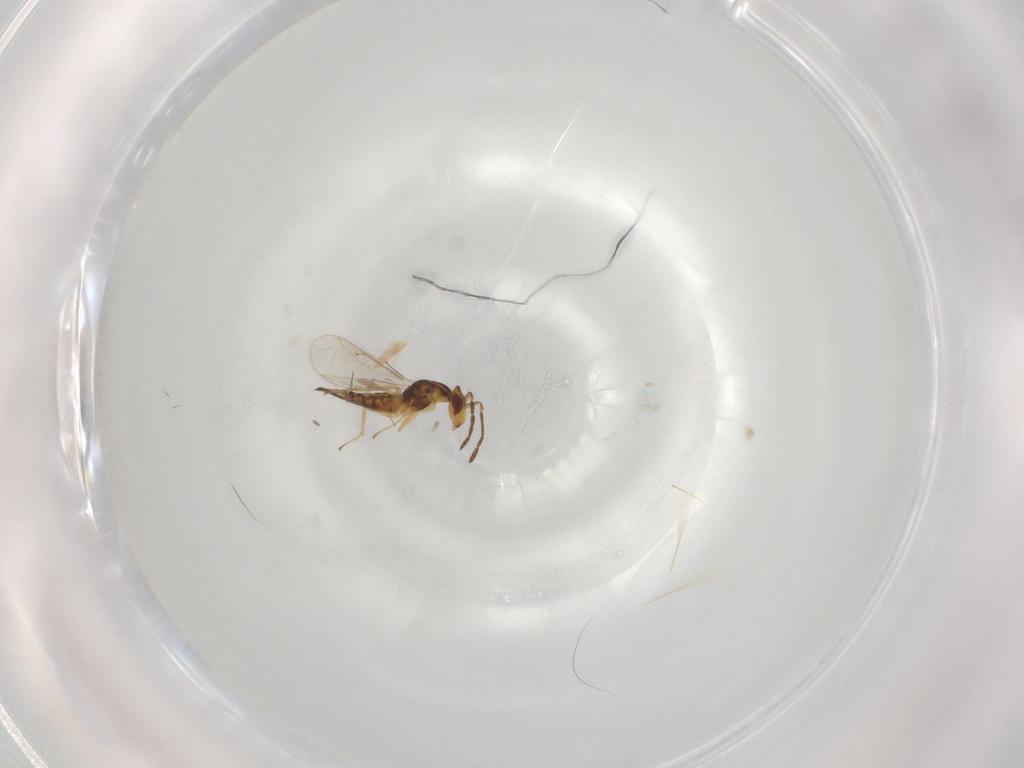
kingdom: Animalia
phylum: Arthropoda
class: Insecta
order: Hymenoptera
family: Eulophidae
